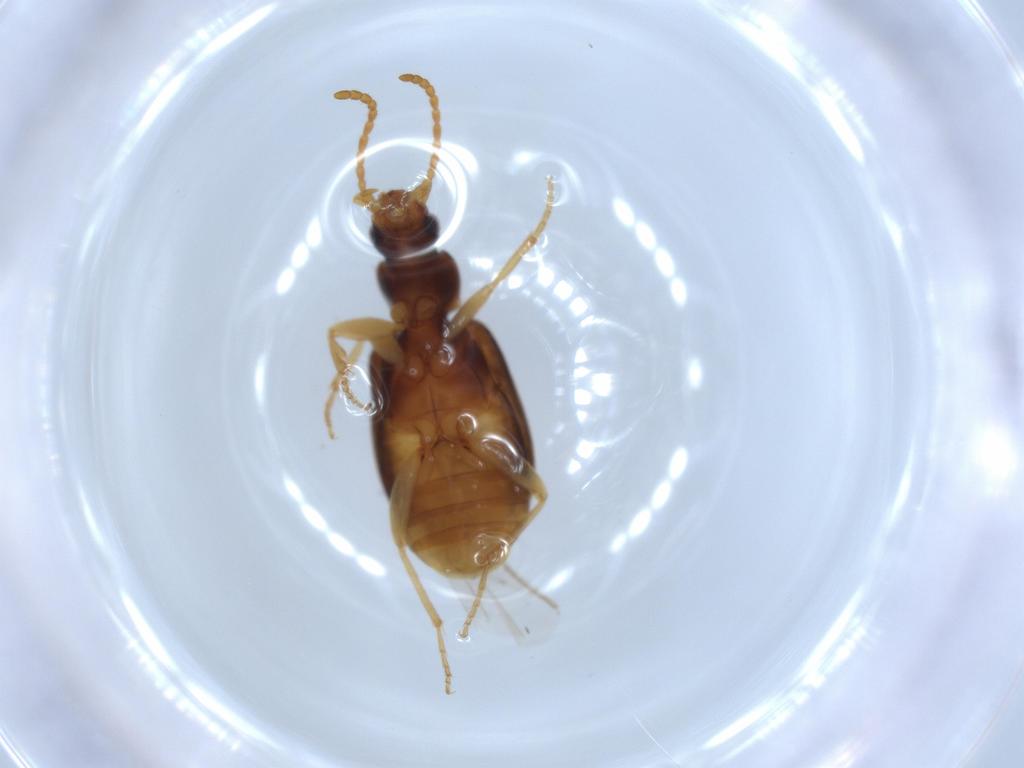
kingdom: Animalia
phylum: Arthropoda
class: Insecta
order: Coleoptera
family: Carabidae
